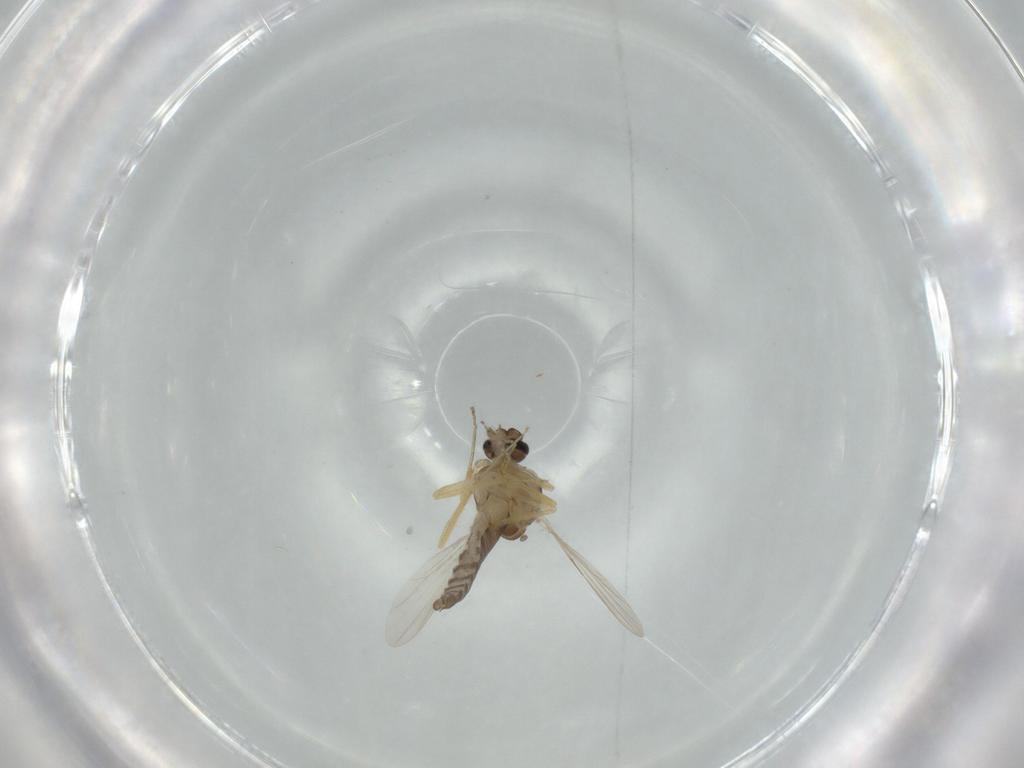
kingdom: Animalia
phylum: Arthropoda
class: Insecta
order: Diptera
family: Ceratopogonidae
